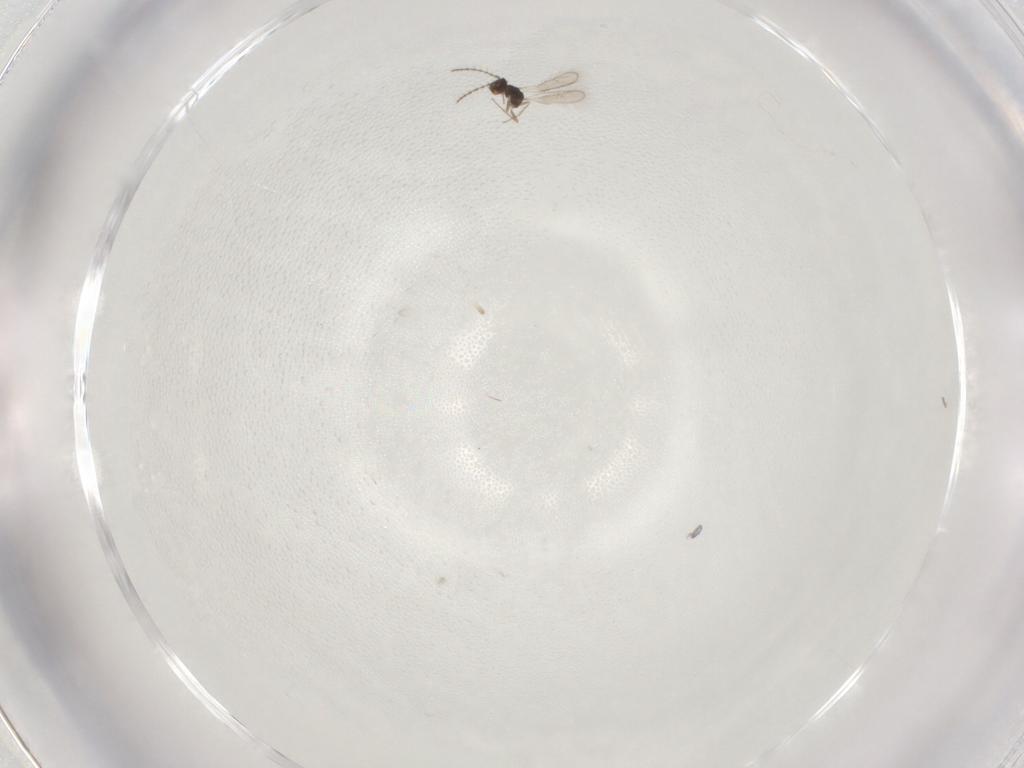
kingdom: Animalia
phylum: Arthropoda
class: Insecta
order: Hymenoptera
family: Pteromalidae
